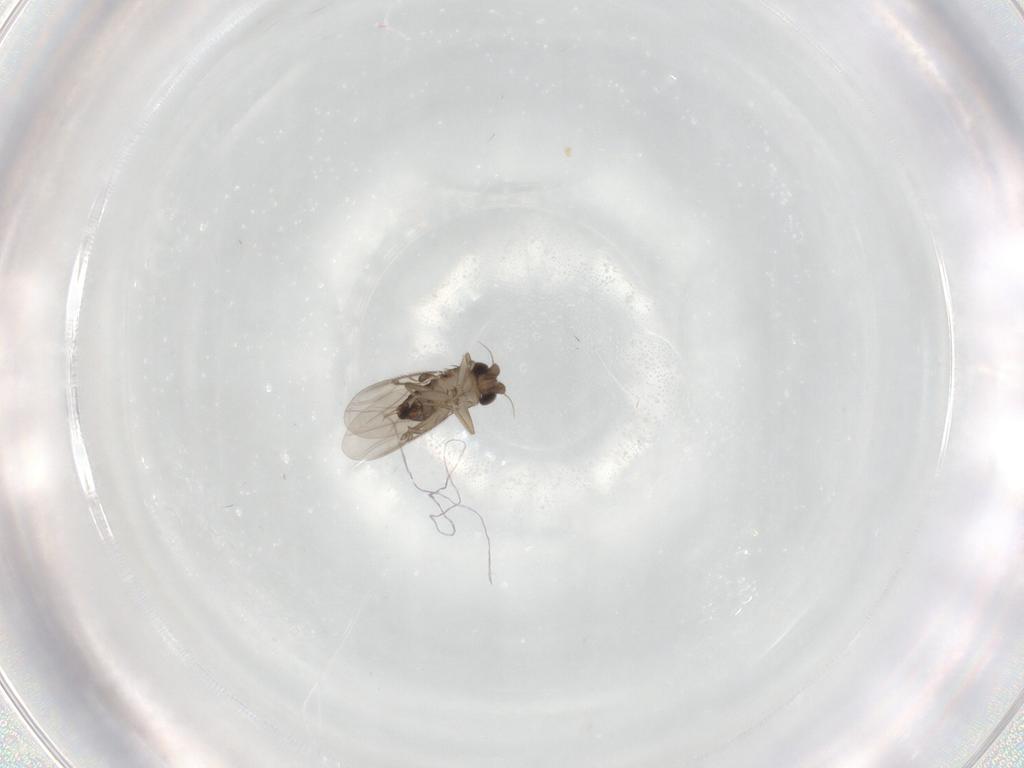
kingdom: Animalia
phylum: Arthropoda
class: Insecta
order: Diptera
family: Phoridae
